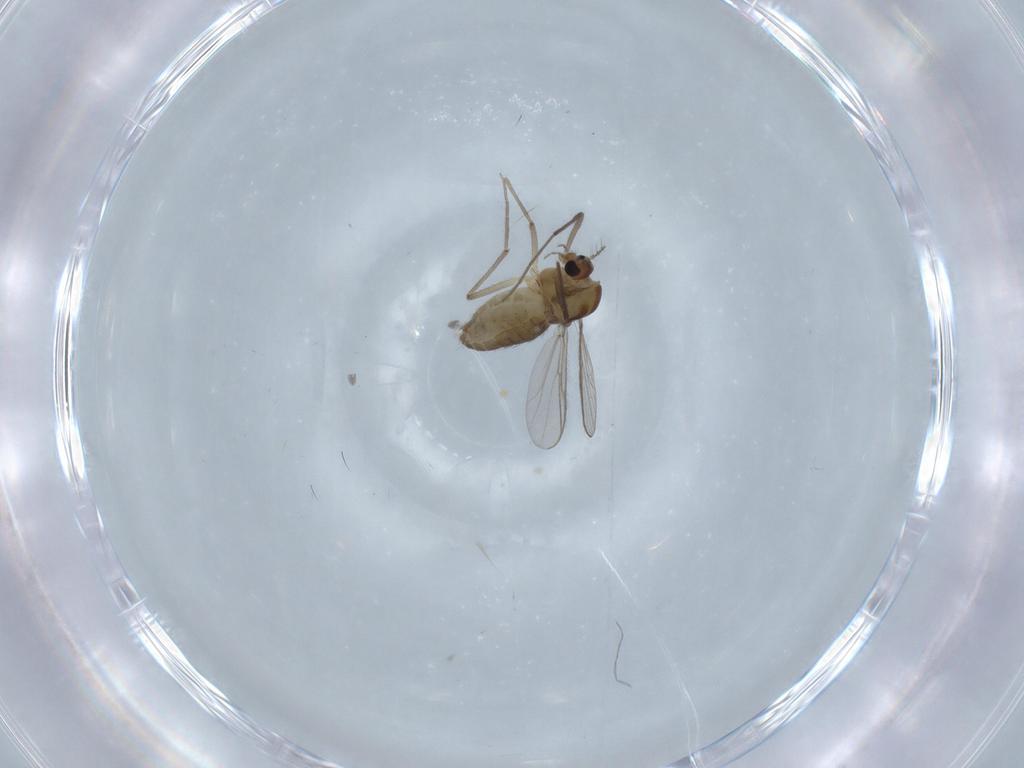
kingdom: Animalia
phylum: Arthropoda
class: Insecta
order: Diptera
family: Chironomidae
